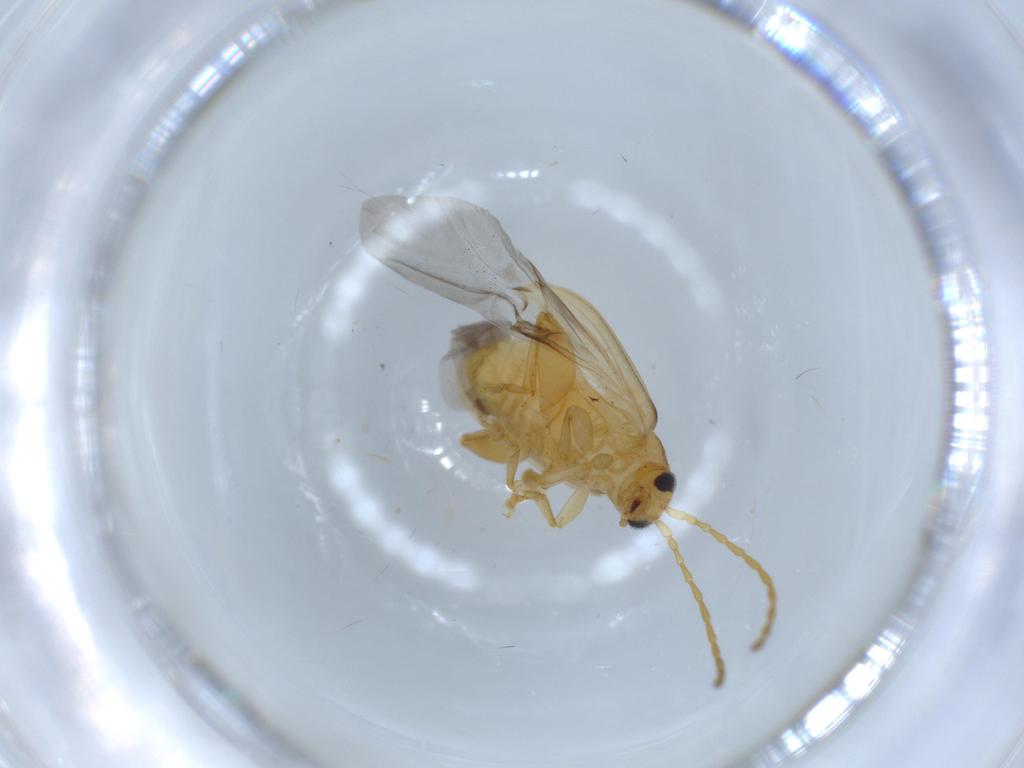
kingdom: Animalia
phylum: Arthropoda
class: Insecta
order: Coleoptera
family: Chrysomelidae
